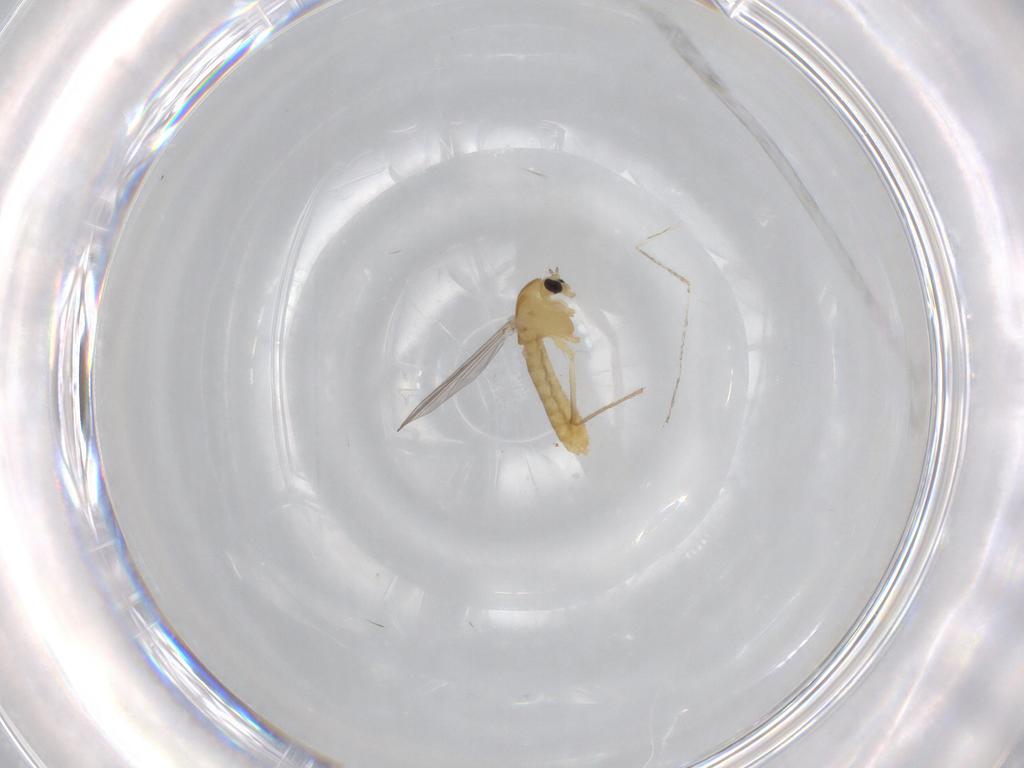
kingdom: Animalia
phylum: Arthropoda
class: Insecta
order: Diptera
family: Chironomidae
